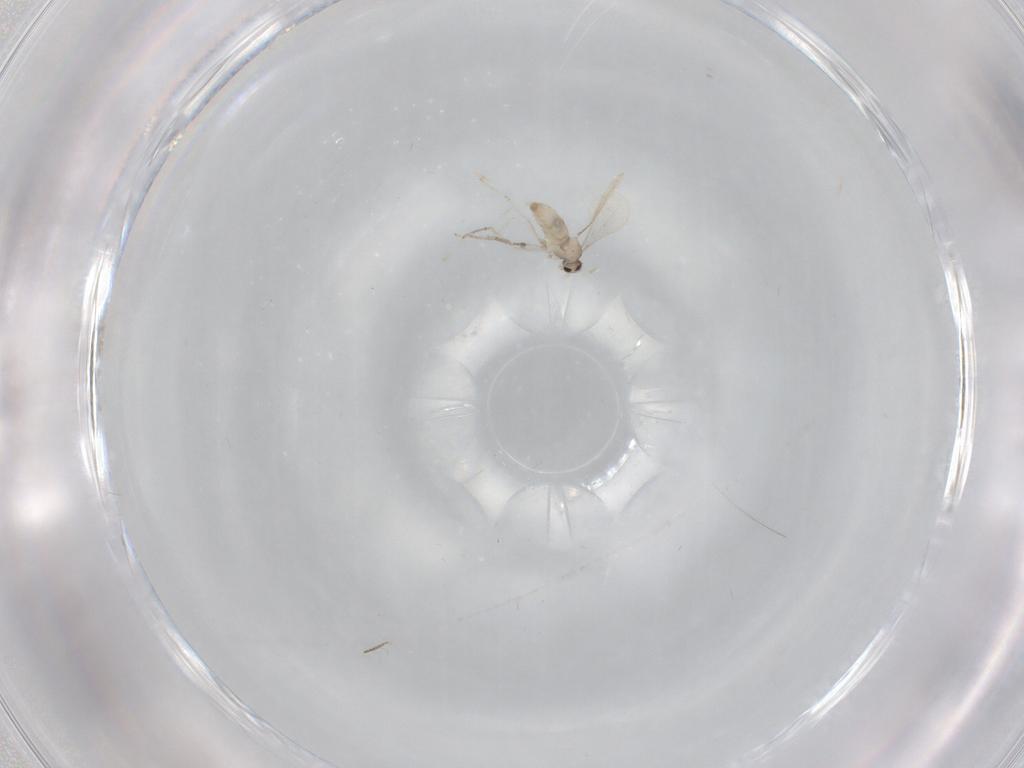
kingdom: Animalia
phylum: Arthropoda
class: Insecta
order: Diptera
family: Cecidomyiidae
